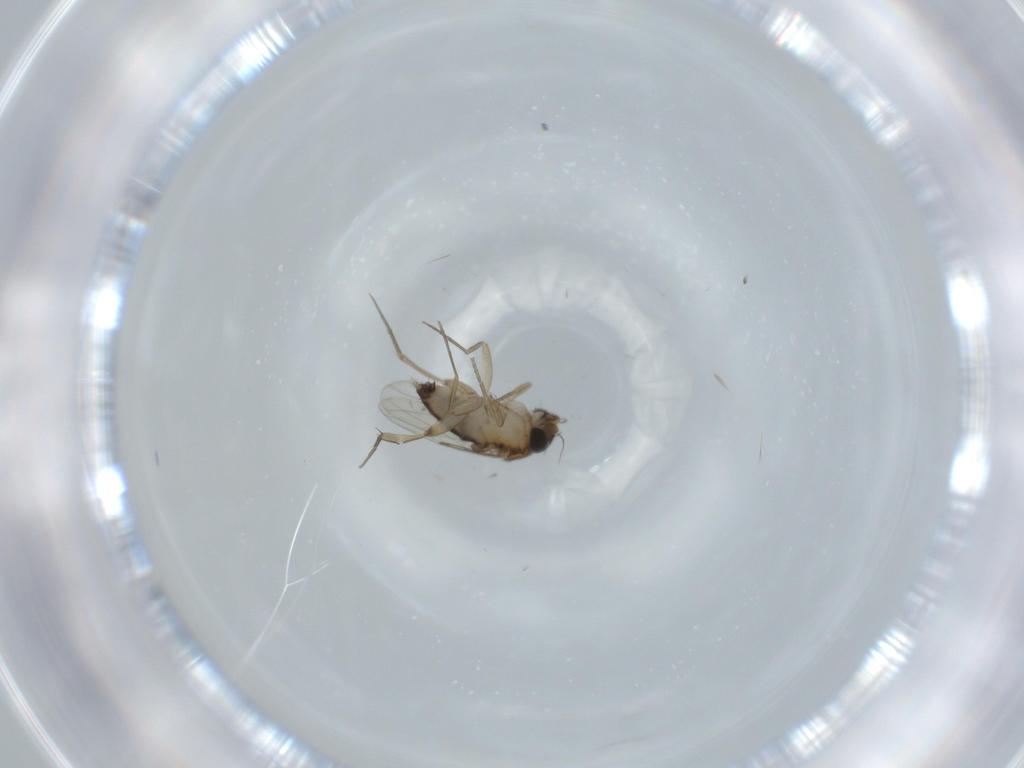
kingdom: Animalia
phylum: Arthropoda
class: Insecta
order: Diptera
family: Phoridae
